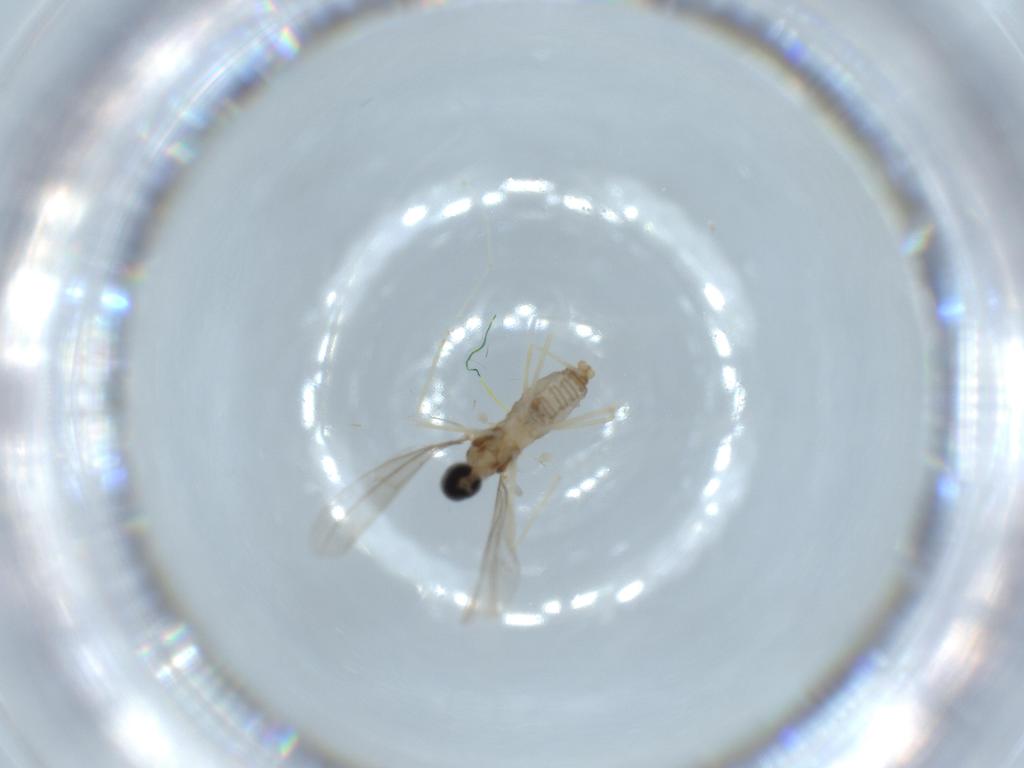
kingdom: Animalia
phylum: Arthropoda
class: Insecta
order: Diptera
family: Cecidomyiidae
